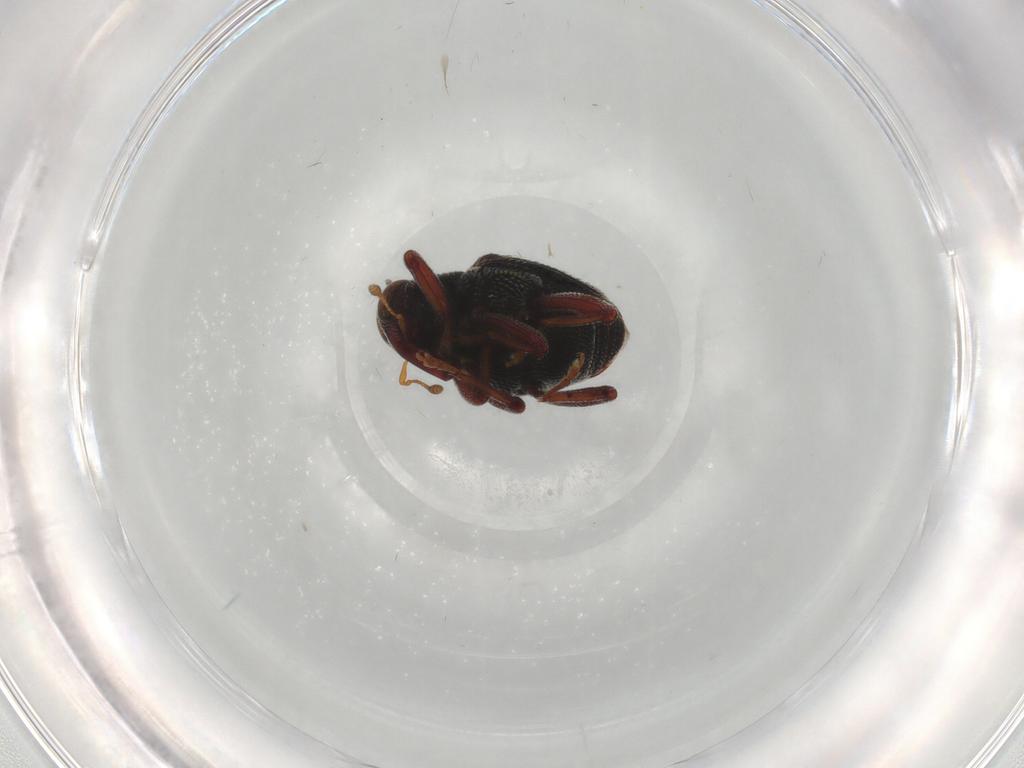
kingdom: Animalia
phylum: Arthropoda
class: Insecta
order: Coleoptera
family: Curculionidae
